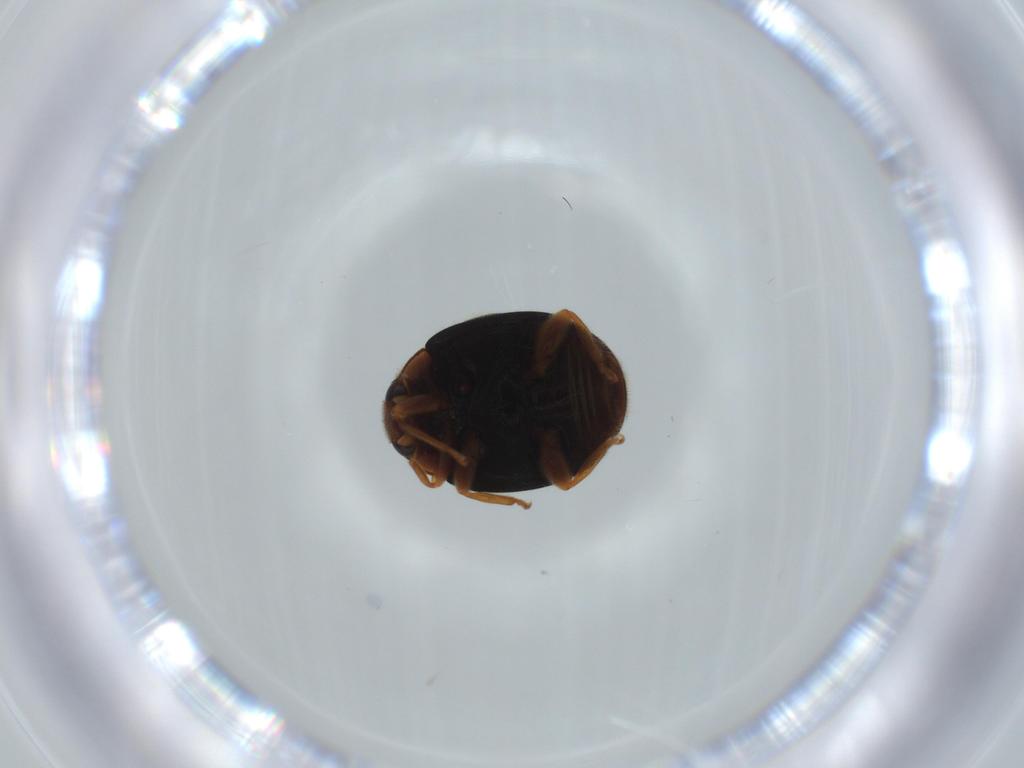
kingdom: Animalia
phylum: Arthropoda
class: Insecta
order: Coleoptera
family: Coccinellidae
